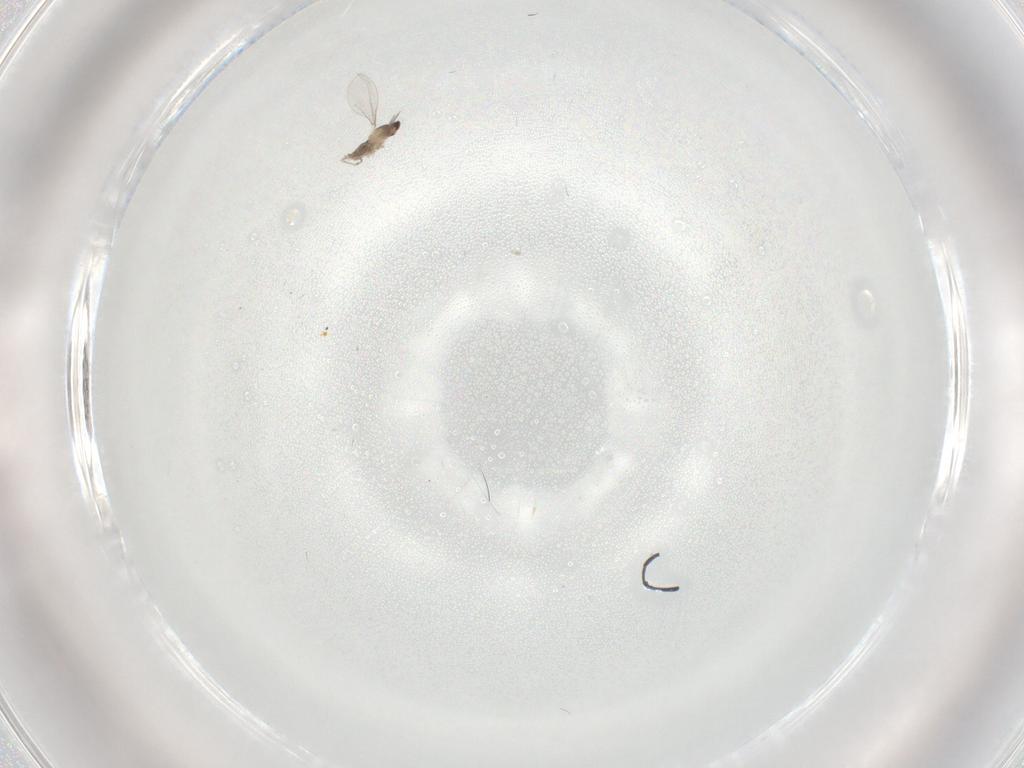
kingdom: Animalia
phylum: Arthropoda
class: Insecta
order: Diptera
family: Cecidomyiidae
